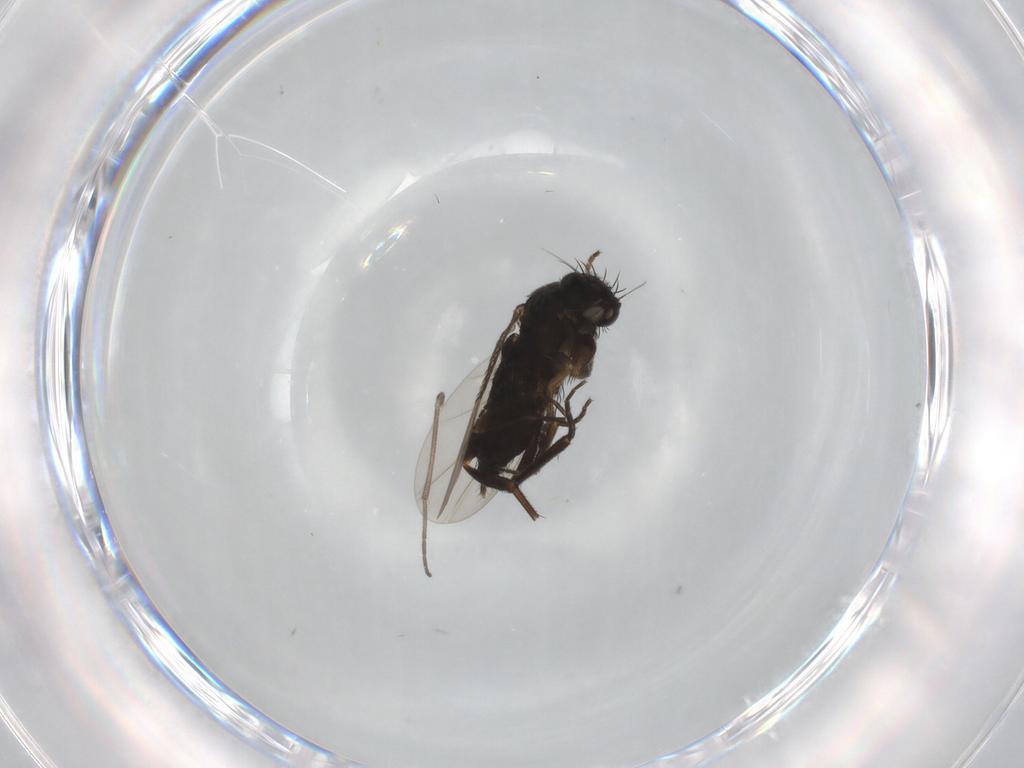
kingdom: Animalia
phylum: Arthropoda
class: Insecta
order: Diptera
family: Phoridae
